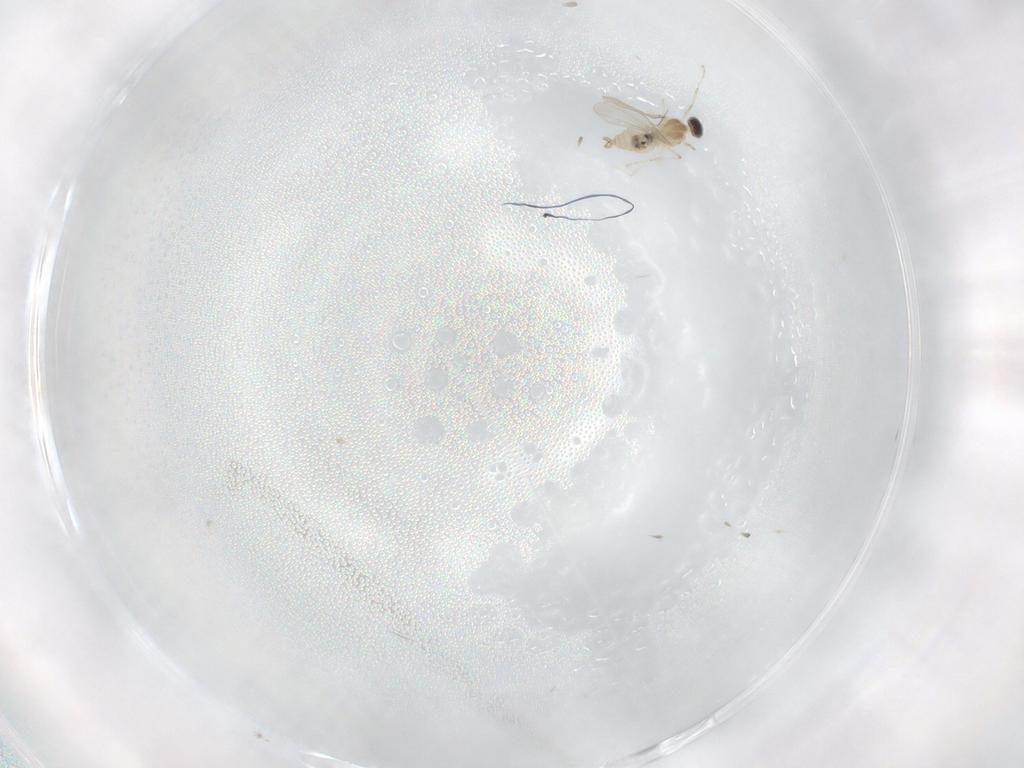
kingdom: Animalia
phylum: Arthropoda
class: Insecta
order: Diptera
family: Cecidomyiidae
